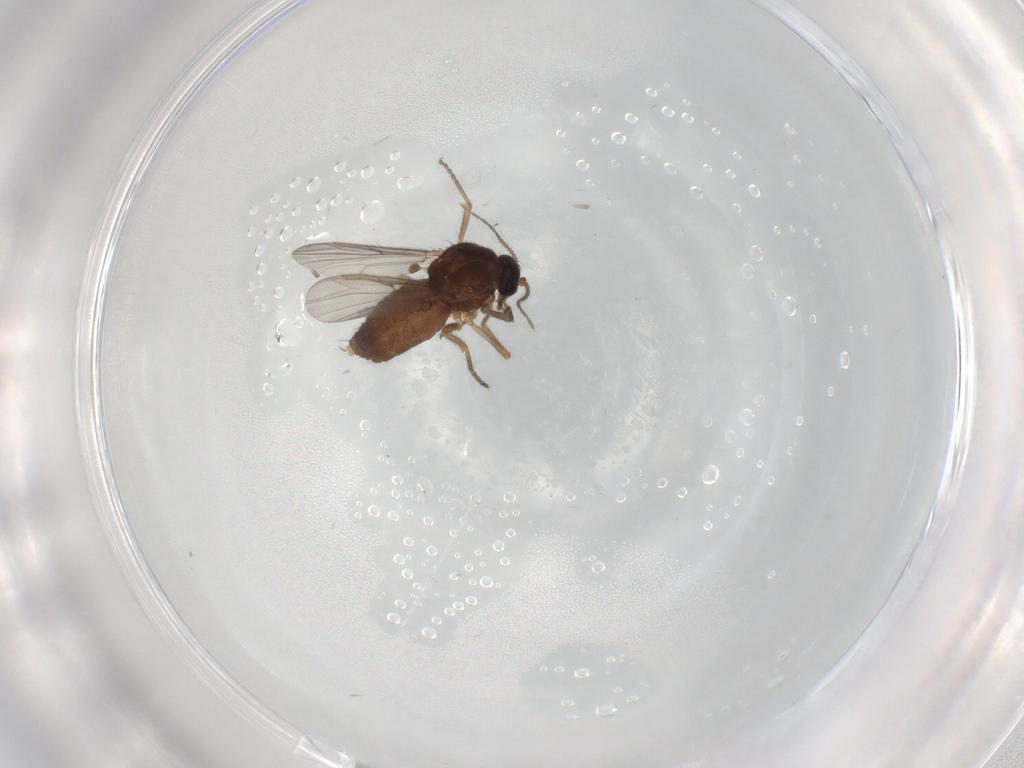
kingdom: Animalia
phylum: Arthropoda
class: Insecta
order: Diptera
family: Ceratopogonidae
